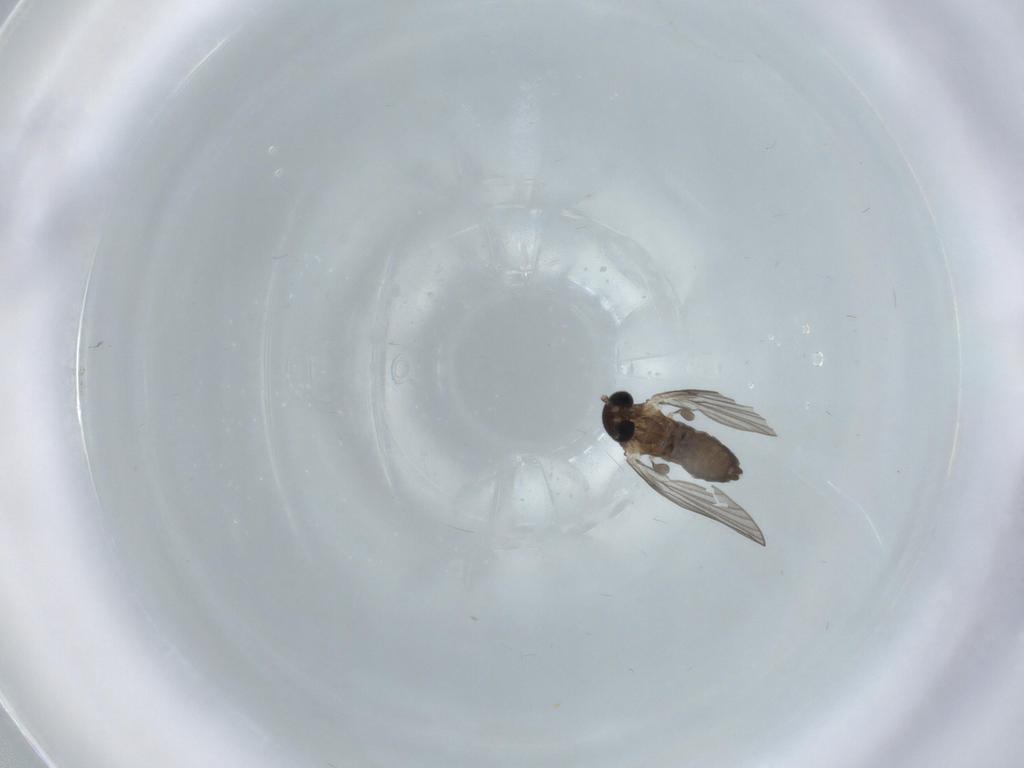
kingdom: Animalia
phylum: Arthropoda
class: Insecta
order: Diptera
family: Psychodidae
